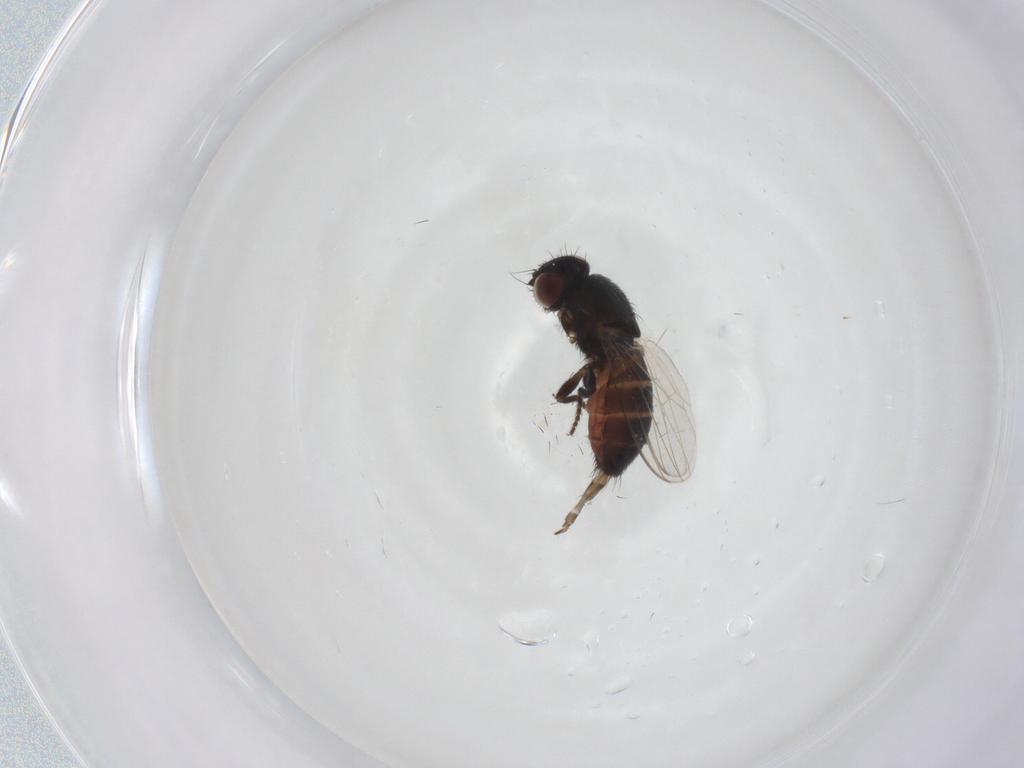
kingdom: Animalia
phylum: Arthropoda
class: Insecta
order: Diptera
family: Milichiidae
